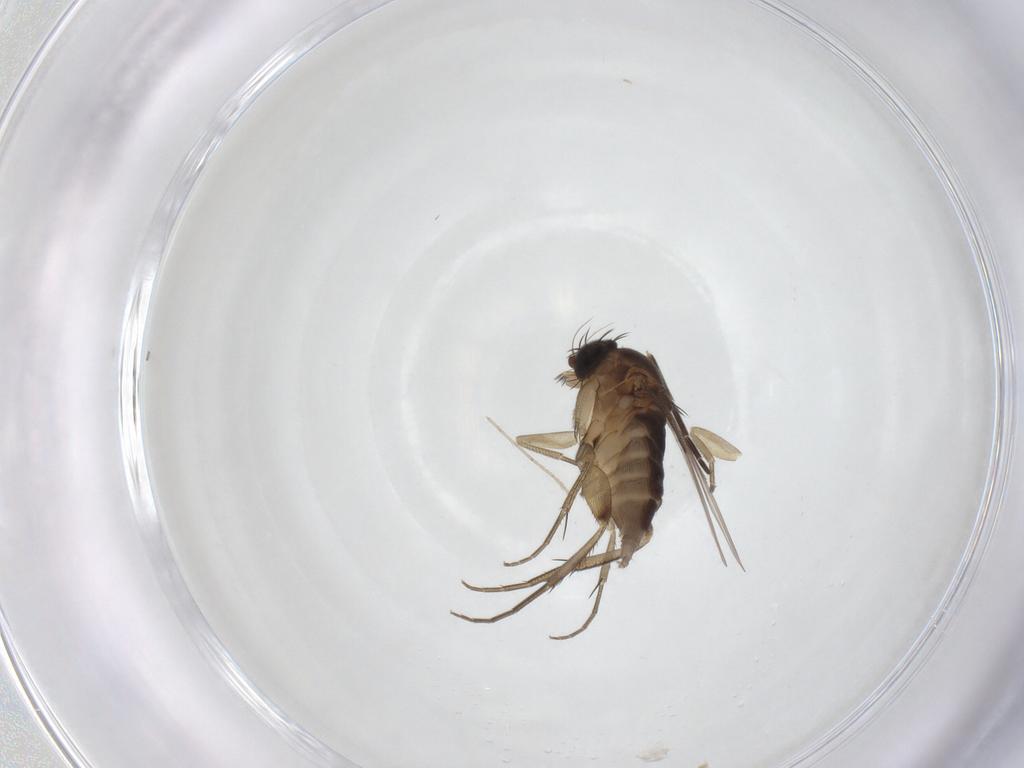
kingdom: Animalia
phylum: Arthropoda
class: Insecta
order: Diptera
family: Phoridae
